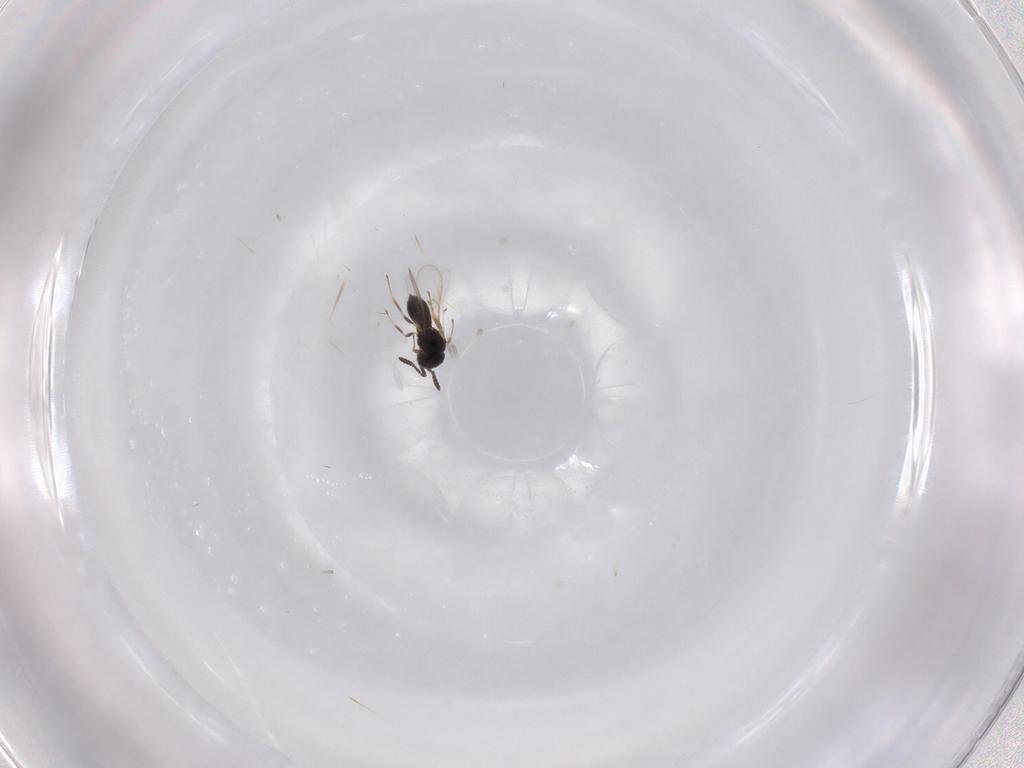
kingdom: Animalia
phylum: Arthropoda
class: Insecta
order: Hymenoptera
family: Scelionidae
